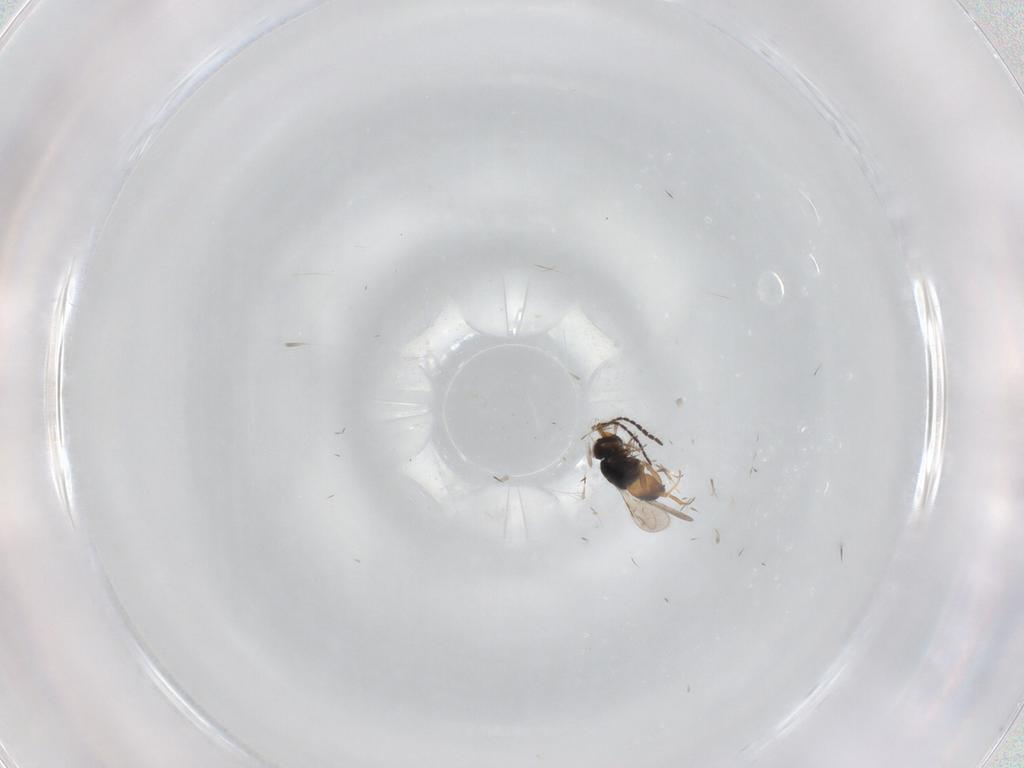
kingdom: Animalia
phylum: Arthropoda
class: Insecta
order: Hymenoptera
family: Ceraphronidae
